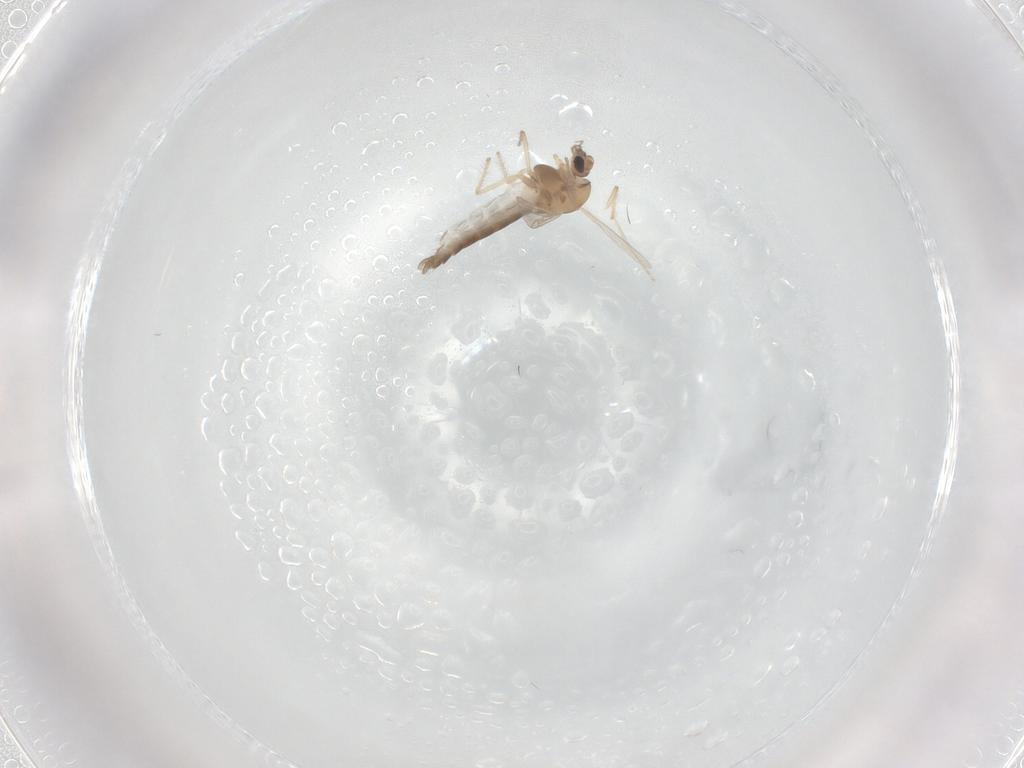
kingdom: Animalia
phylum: Arthropoda
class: Insecta
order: Diptera
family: Chironomidae
